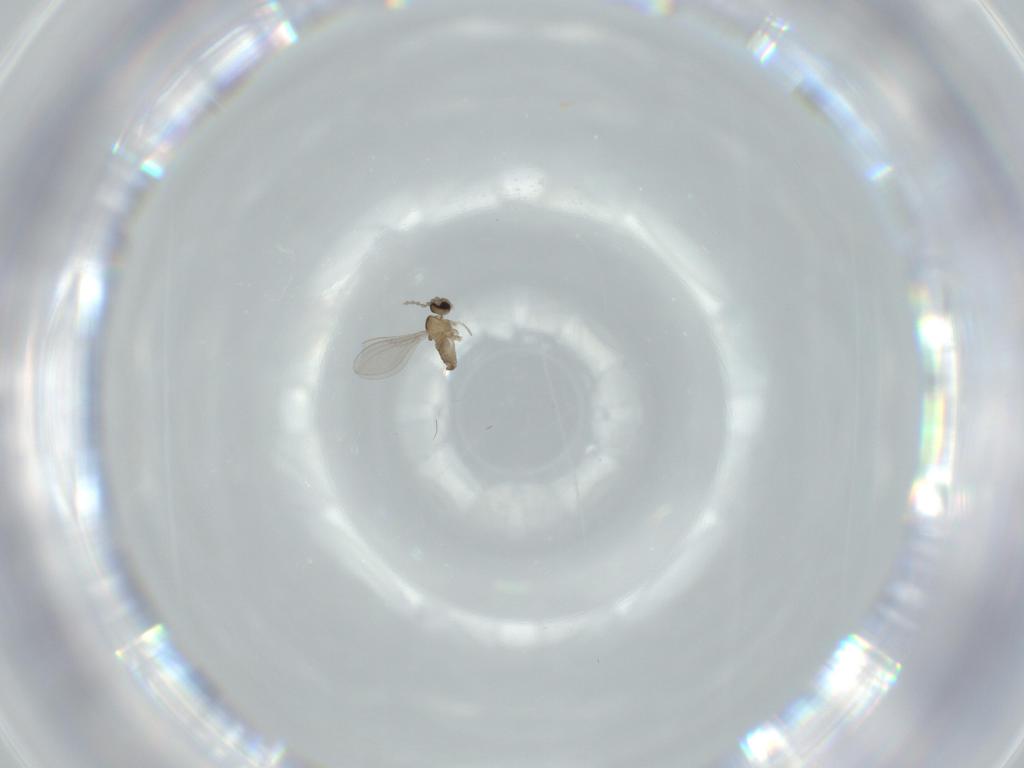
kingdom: Animalia
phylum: Arthropoda
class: Insecta
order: Diptera
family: Cecidomyiidae
